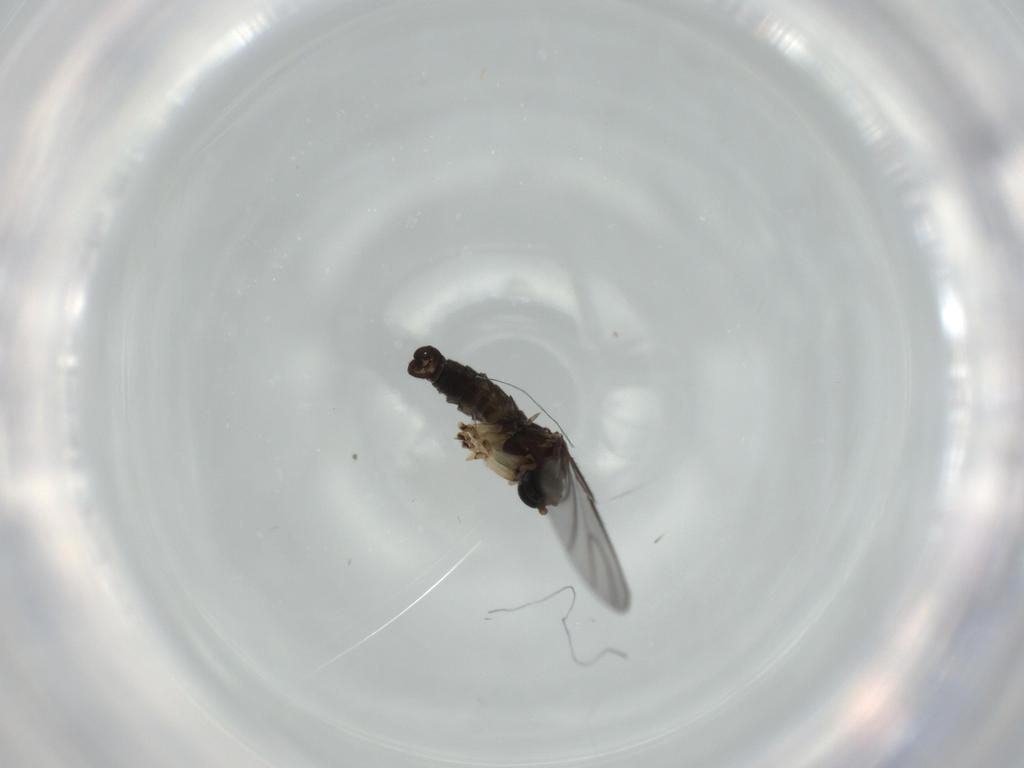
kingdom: Animalia
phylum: Arthropoda
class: Insecta
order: Diptera
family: Sciaridae
